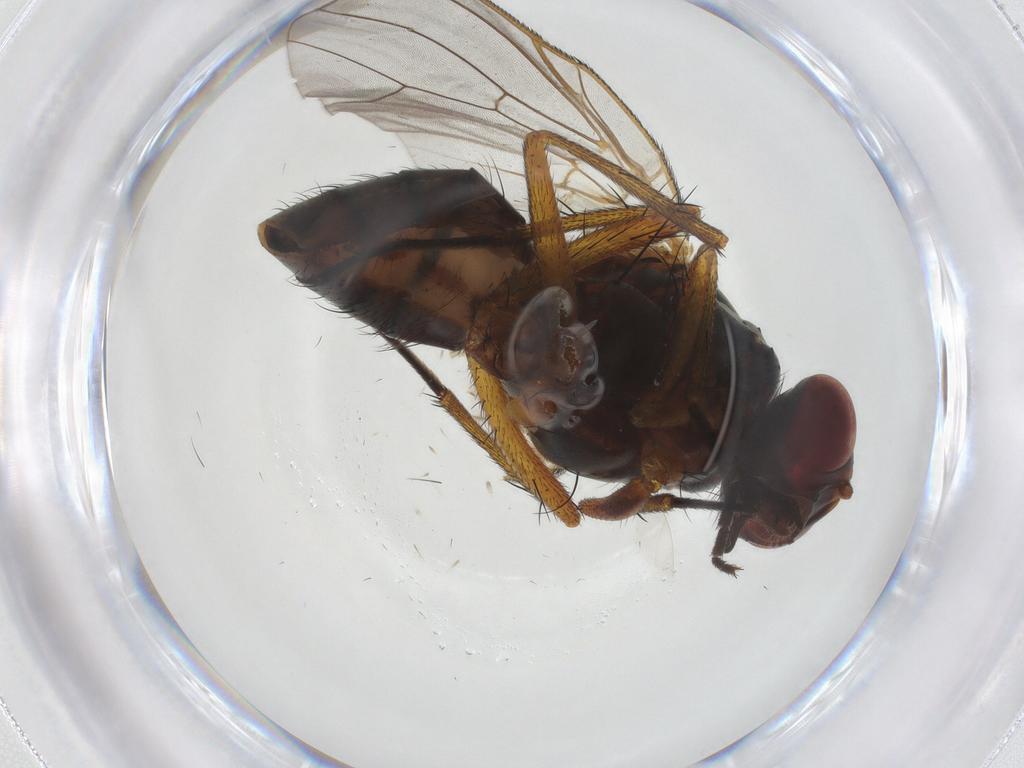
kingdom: Animalia
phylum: Arthropoda
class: Insecta
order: Diptera
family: Anthomyiidae
